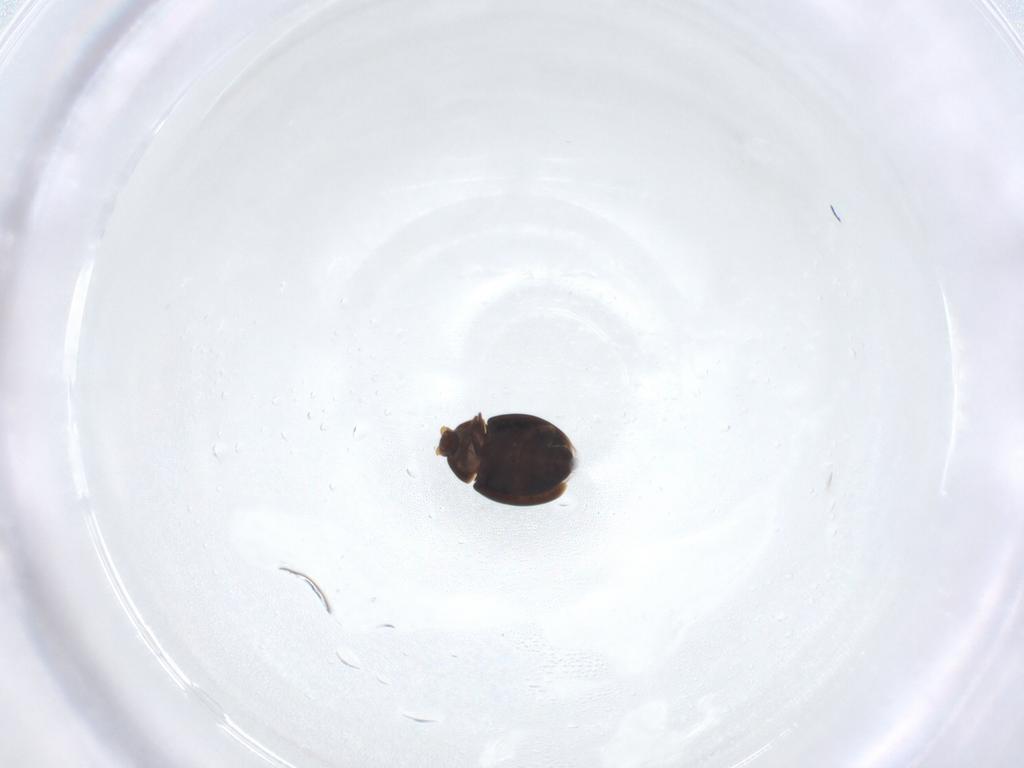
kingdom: Animalia
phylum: Arthropoda
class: Insecta
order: Coleoptera
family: Corylophidae
